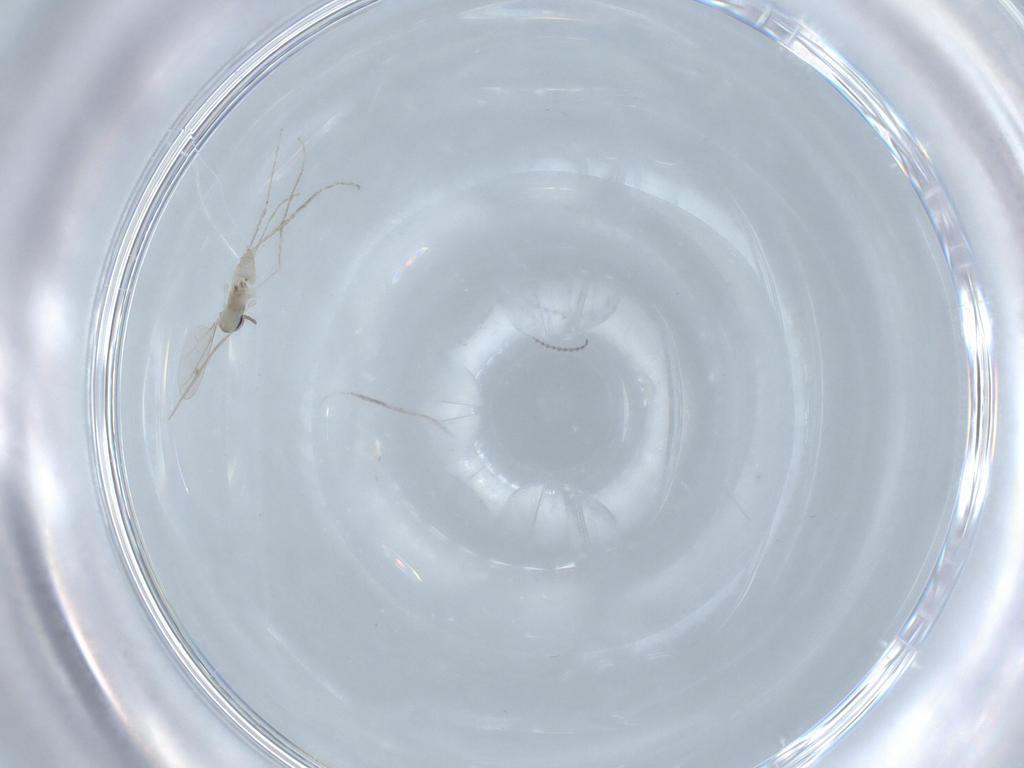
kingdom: Animalia
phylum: Arthropoda
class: Insecta
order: Diptera
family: Cecidomyiidae
